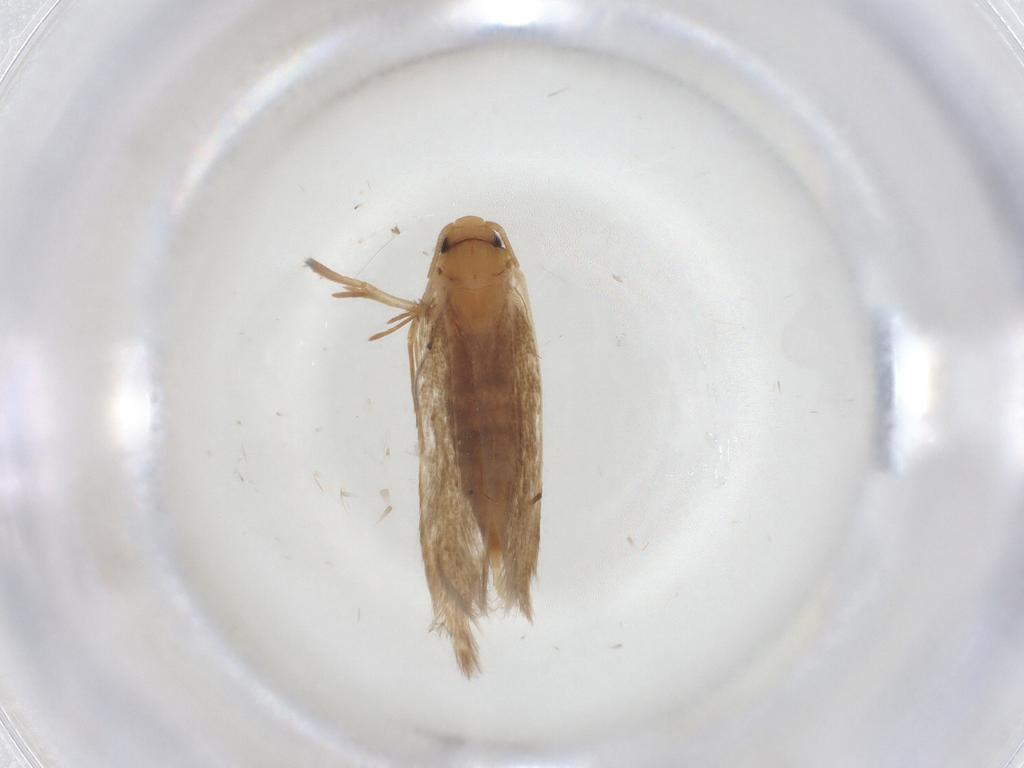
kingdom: Animalia
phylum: Arthropoda
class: Insecta
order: Lepidoptera
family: Tineidae
